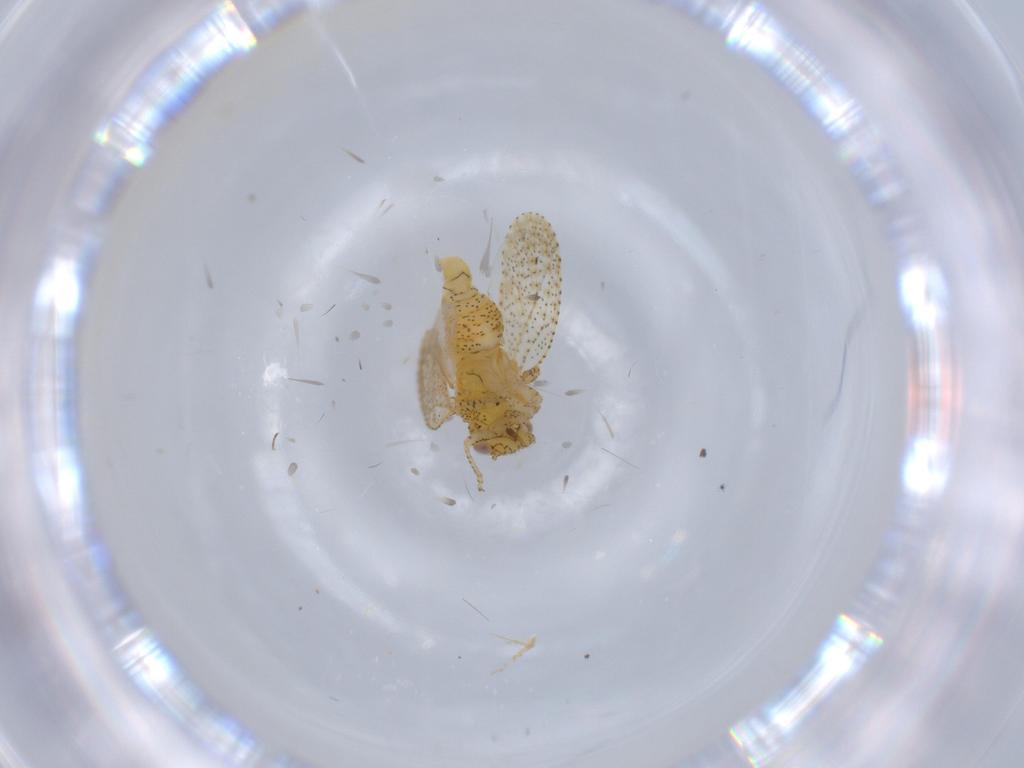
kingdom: Animalia
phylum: Arthropoda
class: Insecta
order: Hemiptera
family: Psyllidae
